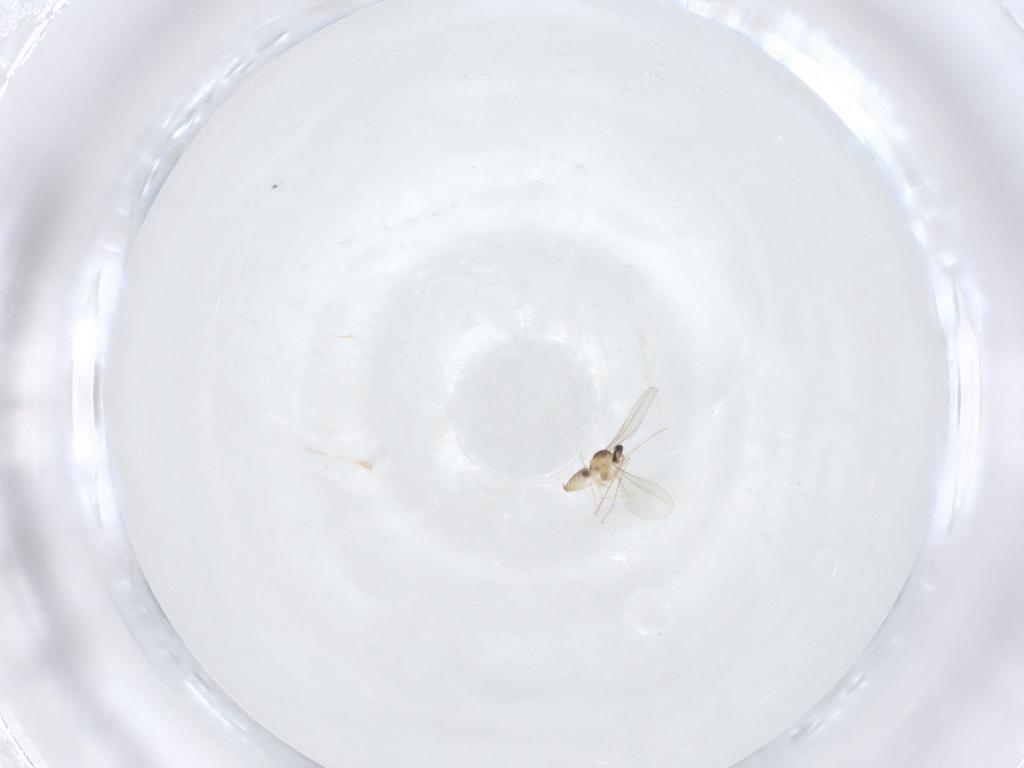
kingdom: Animalia
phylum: Arthropoda
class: Insecta
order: Diptera
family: Cecidomyiidae
